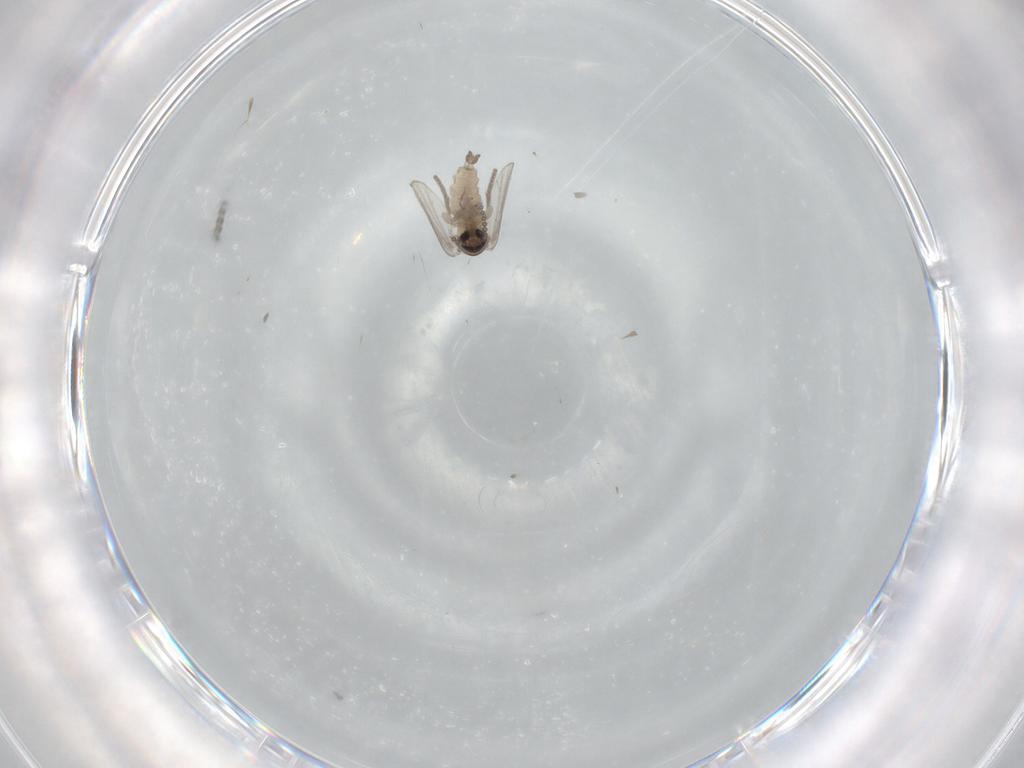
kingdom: Animalia
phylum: Arthropoda
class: Insecta
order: Diptera
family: Psychodidae
